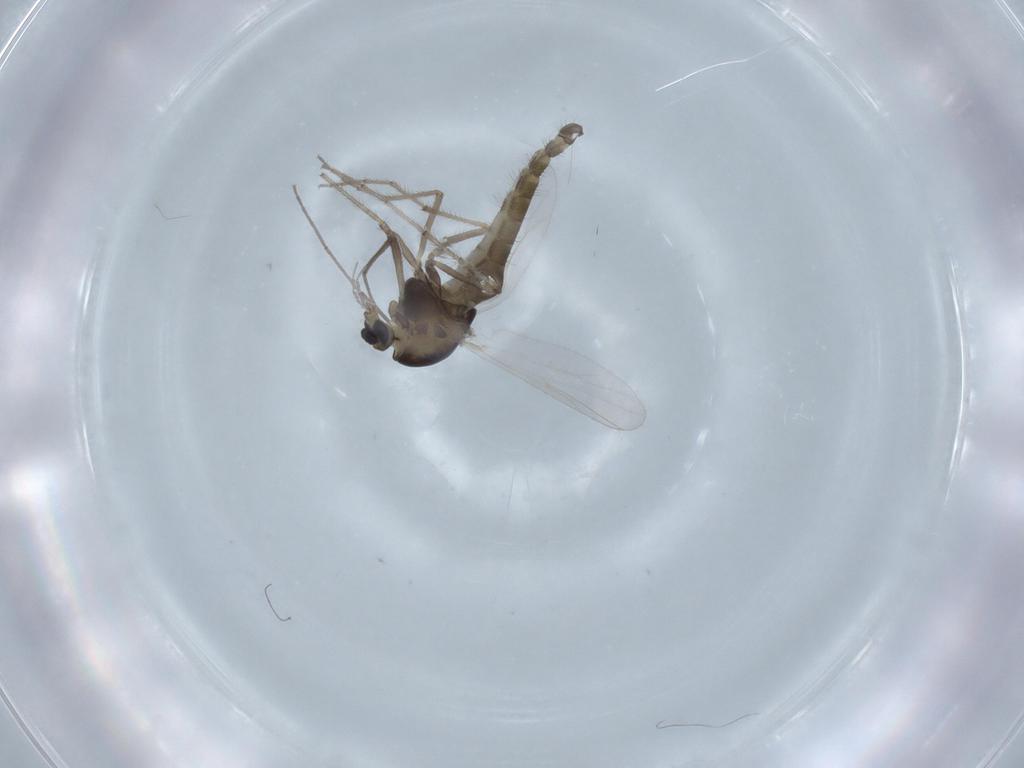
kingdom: Animalia
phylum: Arthropoda
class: Insecta
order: Diptera
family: Chironomidae
